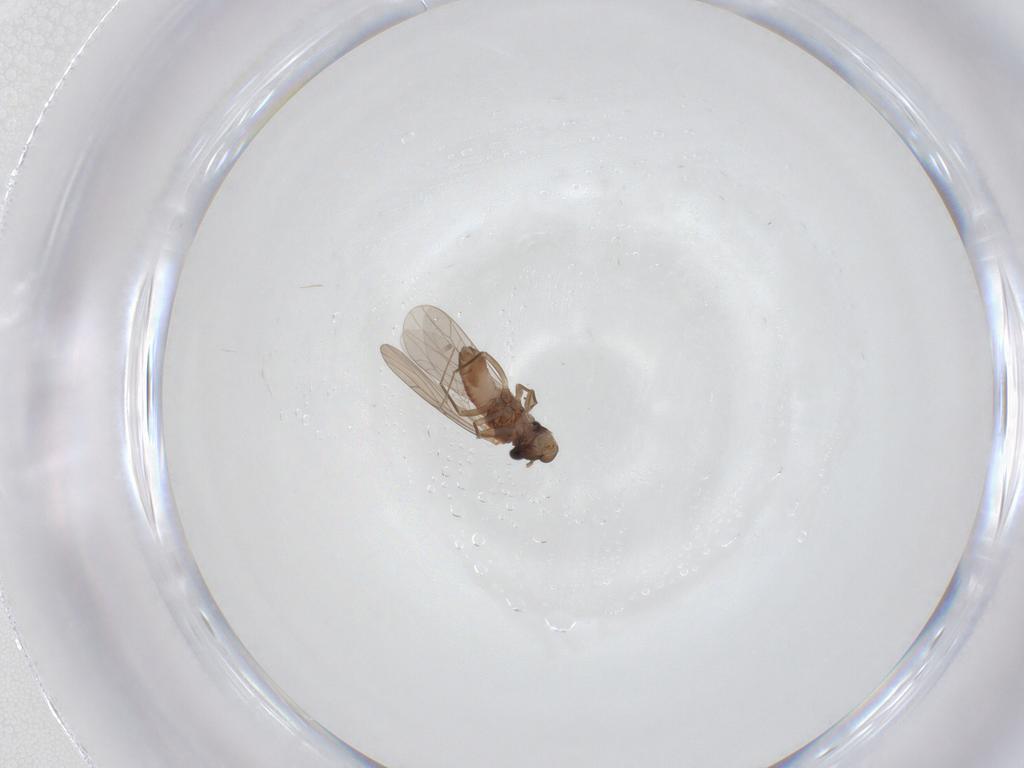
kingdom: Animalia
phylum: Arthropoda
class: Insecta
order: Psocodea
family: Lepidopsocidae
